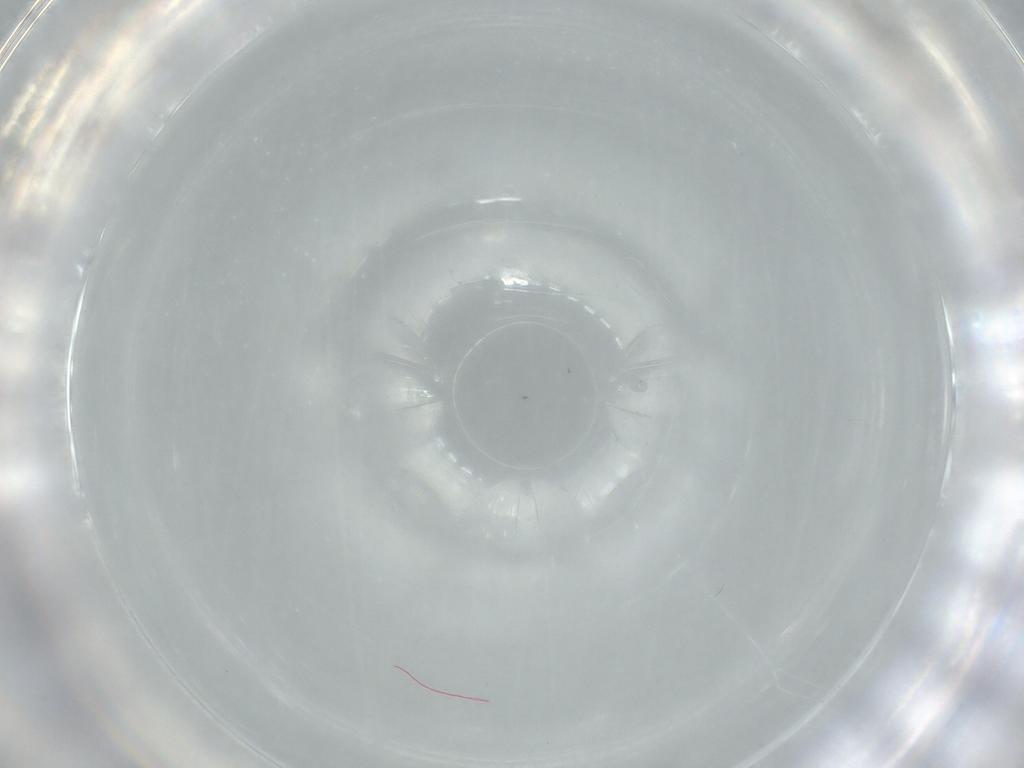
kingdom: Animalia
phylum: Arthropoda
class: Insecta
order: Diptera
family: Cecidomyiidae
